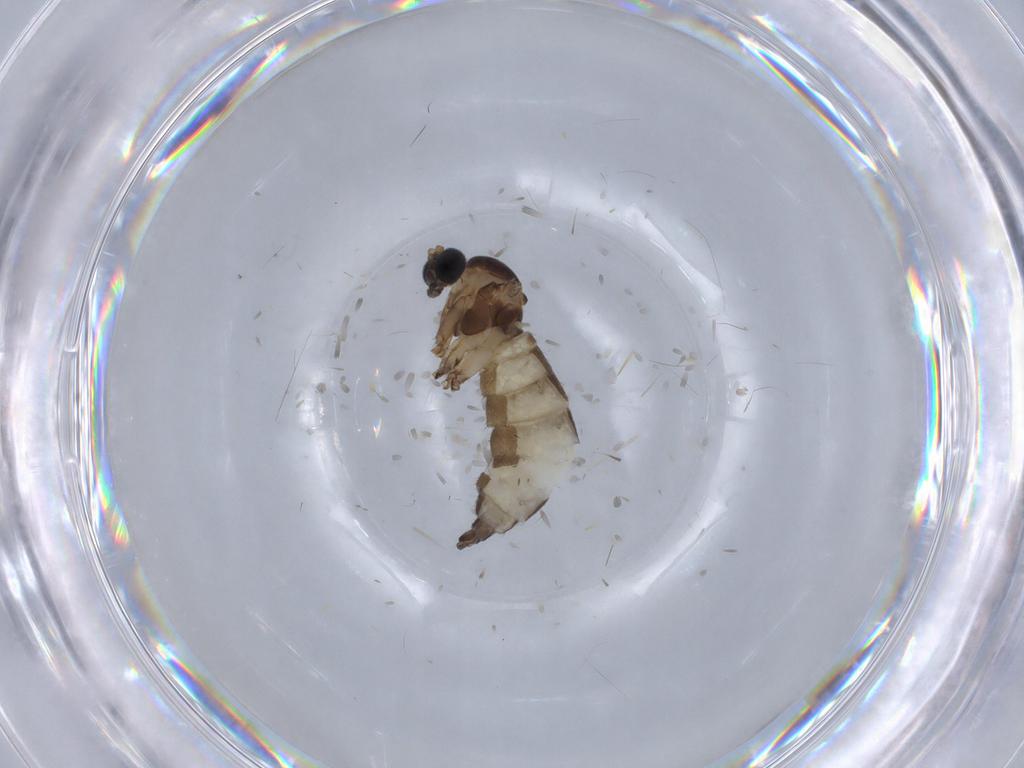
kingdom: Animalia
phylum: Arthropoda
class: Insecta
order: Diptera
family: Sciaridae
